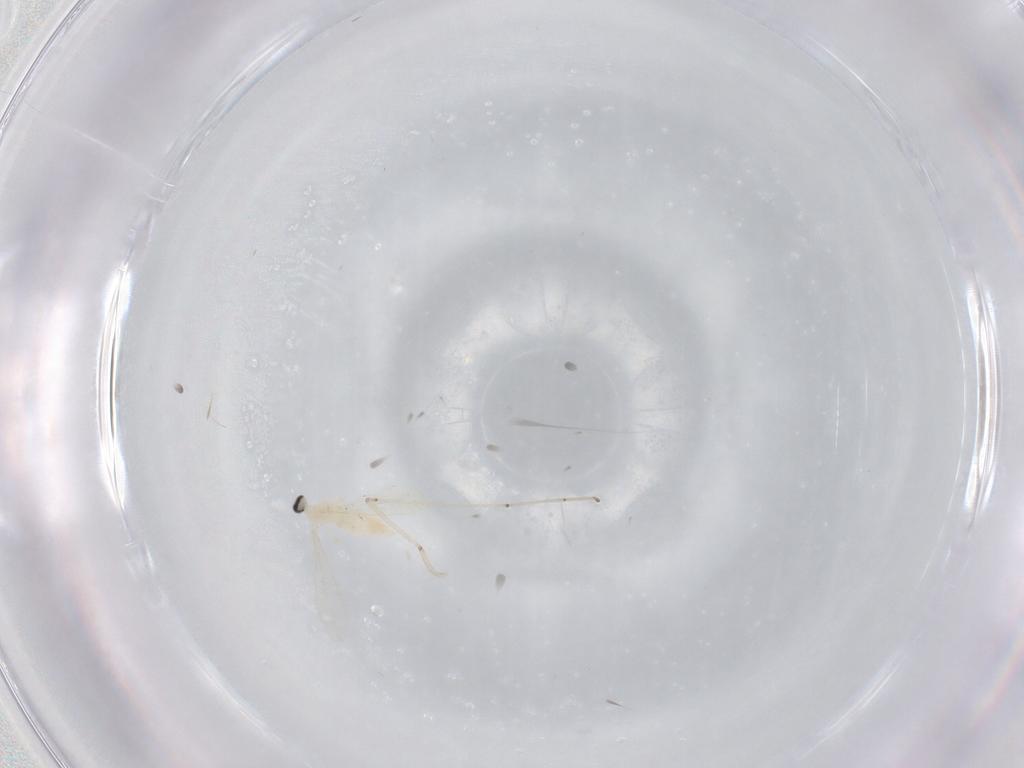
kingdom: Animalia
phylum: Arthropoda
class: Insecta
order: Diptera
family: Cecidomyiidae
